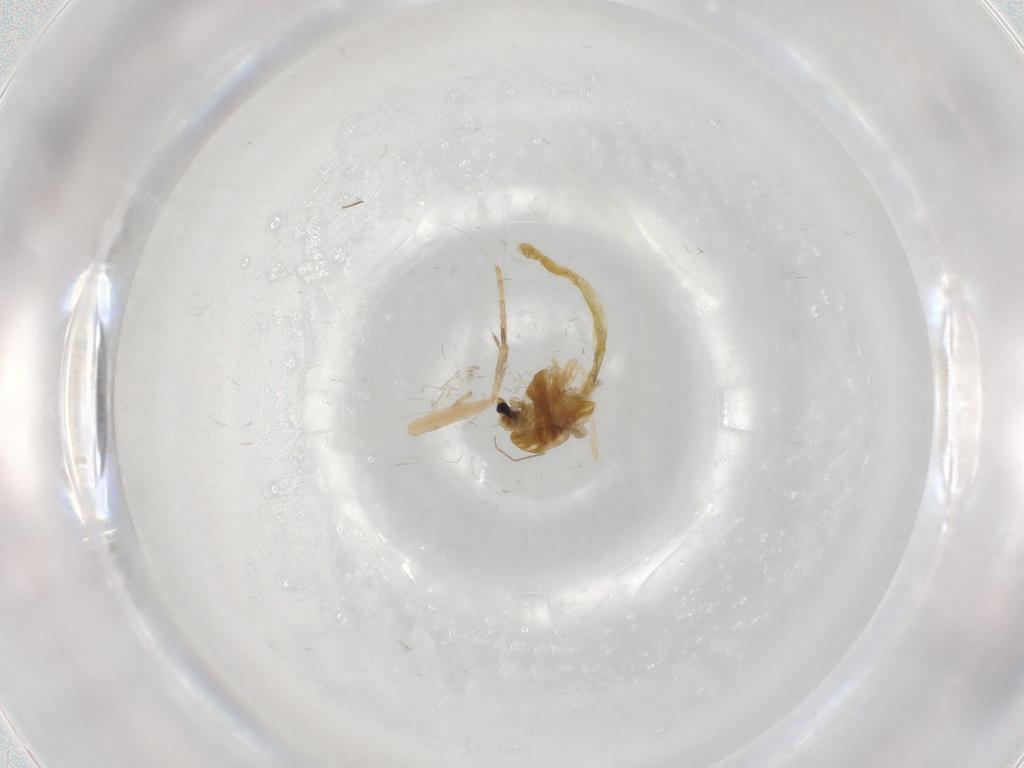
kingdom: Animalia
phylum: Arthropoda
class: Insecta
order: Diptera
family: Chironomidae
